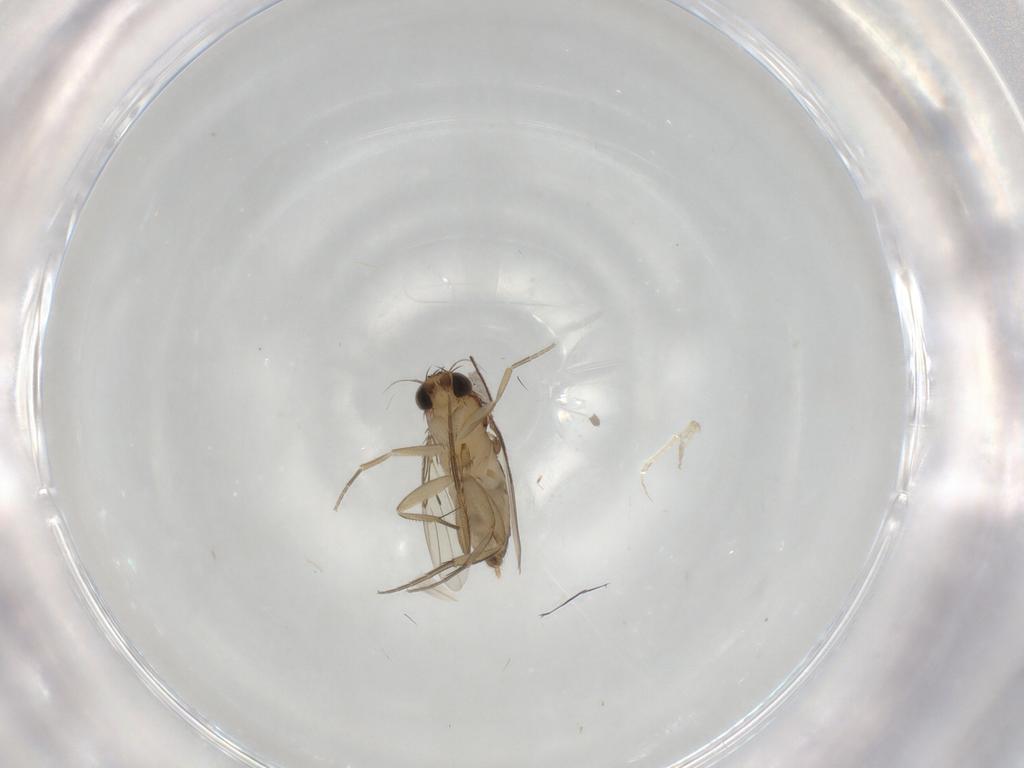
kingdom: Animalia
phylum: Arthropoda
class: Insecta
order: Diptera
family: Phoridae
